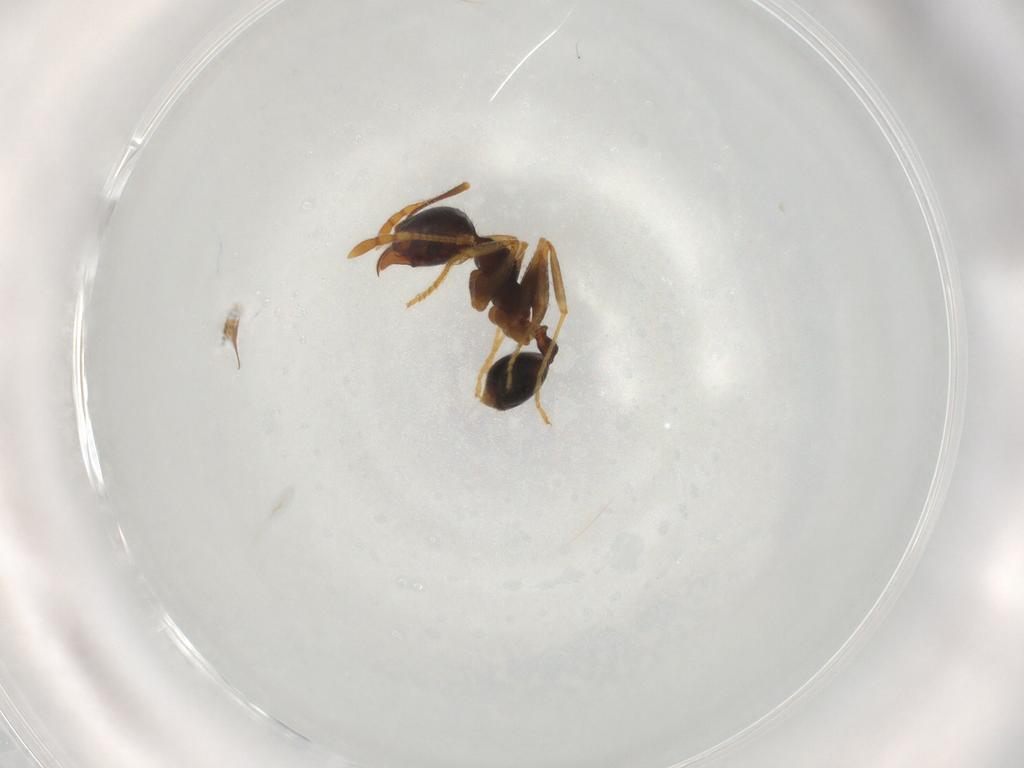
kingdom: Animalia
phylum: Arthropoda
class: Insecta
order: Hymenoptera
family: Formicidae
